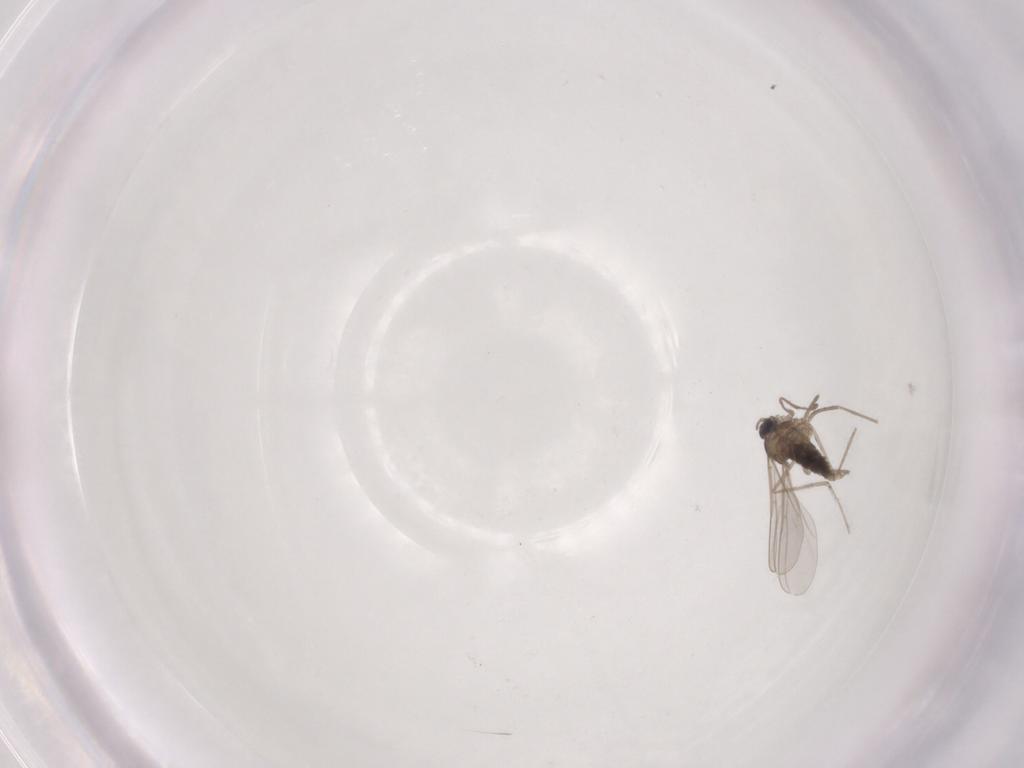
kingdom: Animalia
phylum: Arthropoda
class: Insecta
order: Diptera
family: Cecidomyiidae
